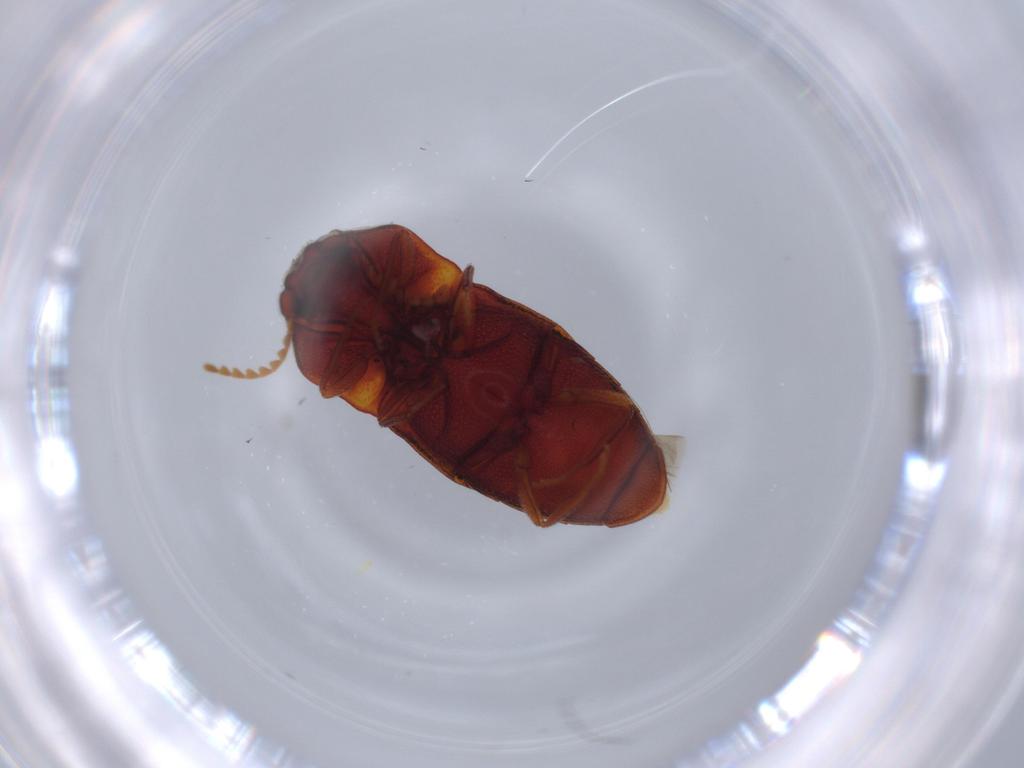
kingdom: Animalia
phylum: Arthropoda
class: Insecta
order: Coleoptera
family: Elateridae
